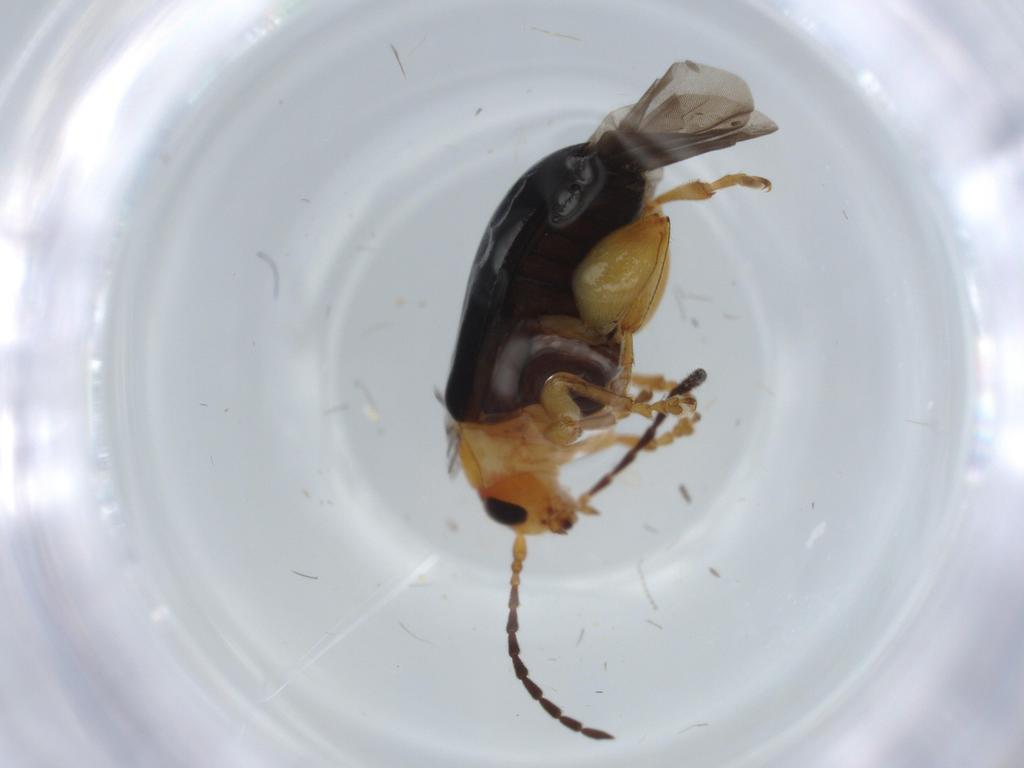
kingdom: Animalia
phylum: Arthropoda
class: Insecta
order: Coleoptera
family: Chrysomelidae
